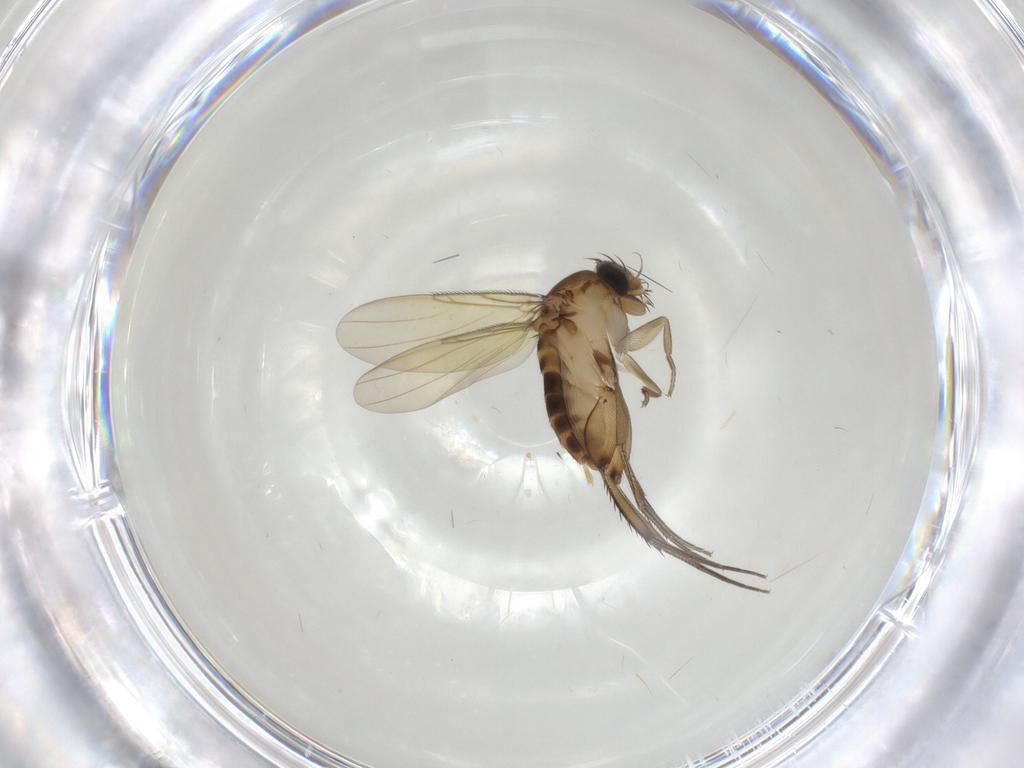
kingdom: Animalia
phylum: Arthropoda
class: Insecta
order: Diptera
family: Phoridae
